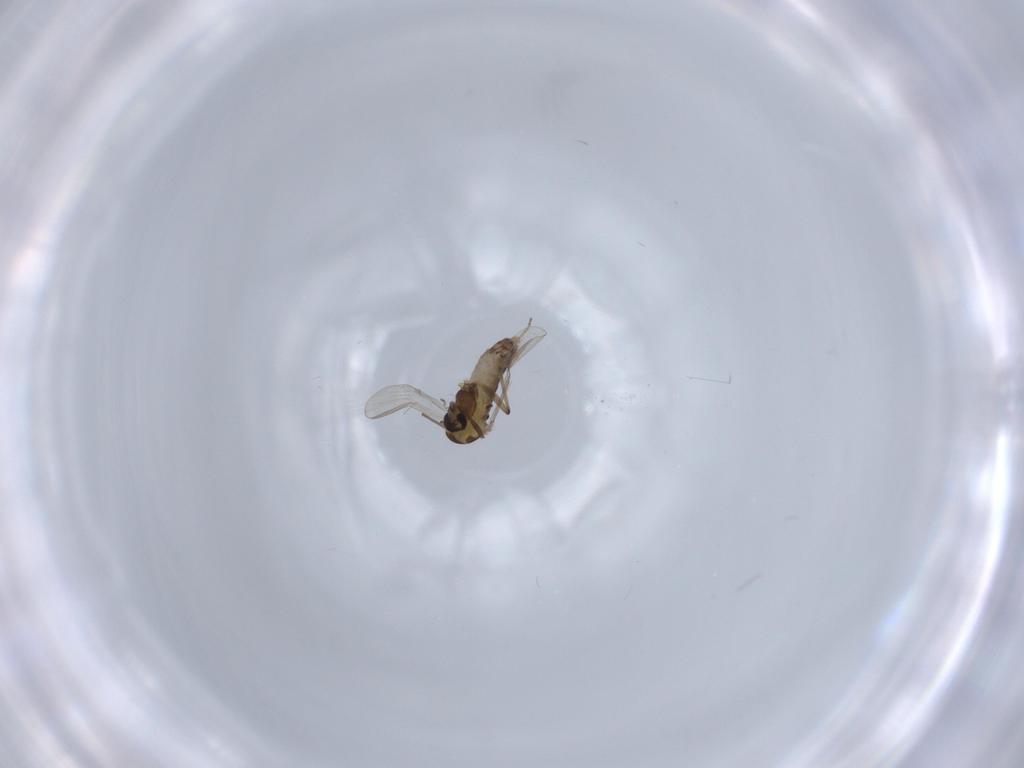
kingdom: Animalia
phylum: Arthropoda
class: Insecta
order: Diptera
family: Chironomidae
